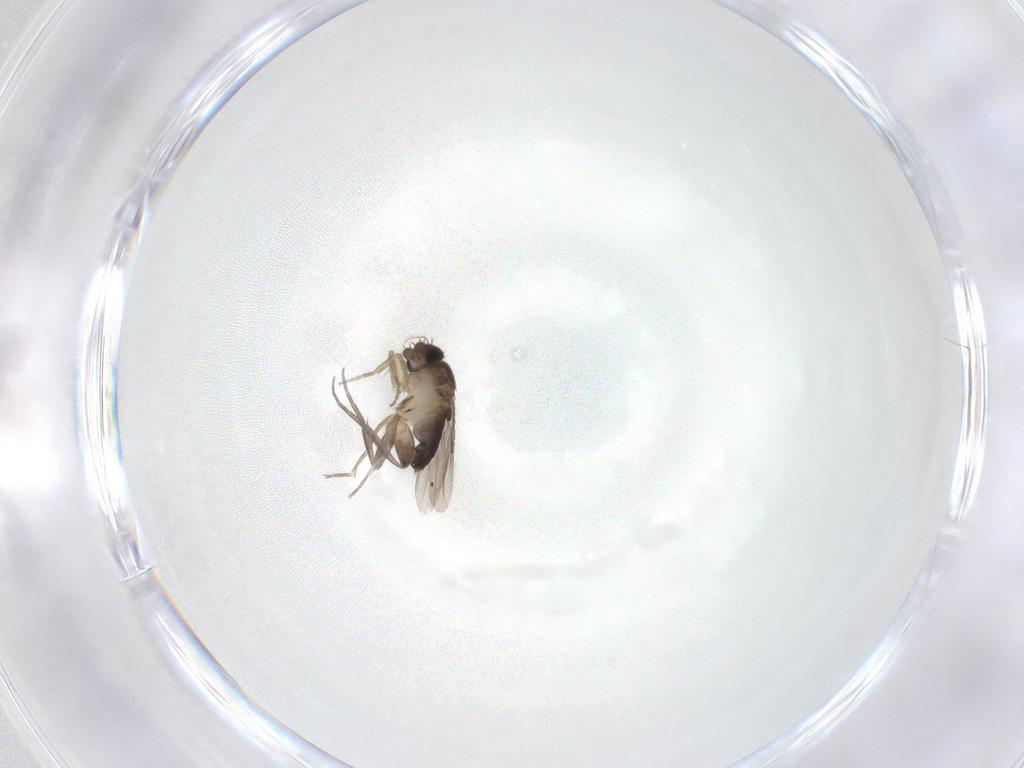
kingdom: Animalia
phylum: Arthropoda
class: Insecta
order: Diptera
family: Phoridae
